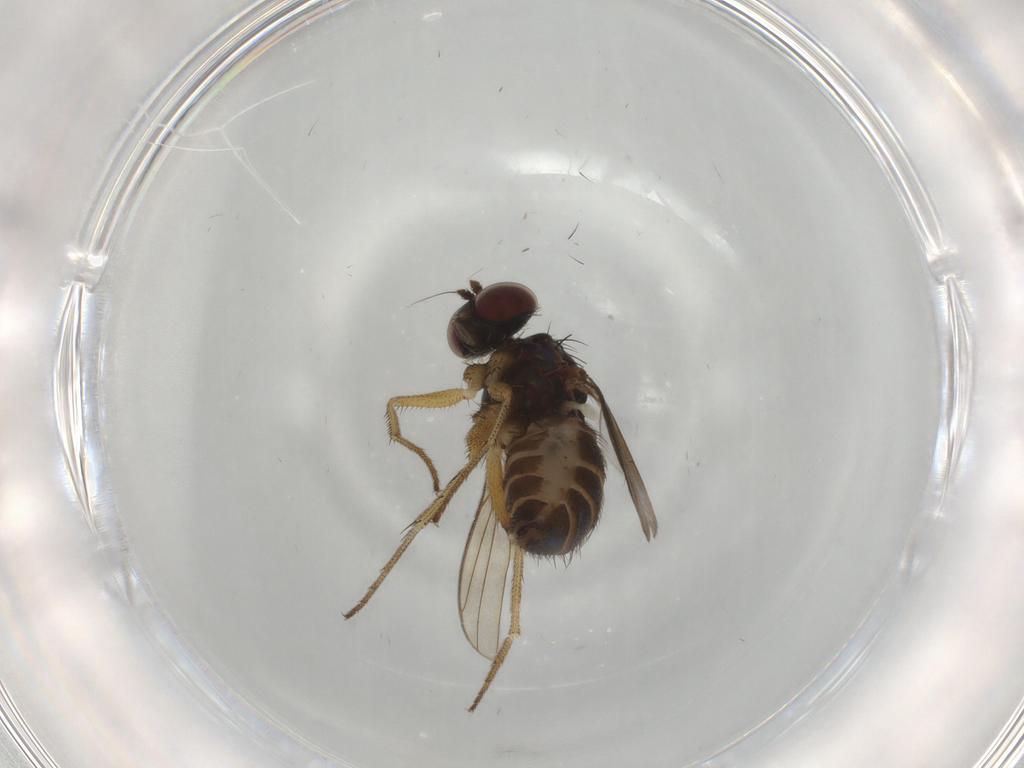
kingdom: Animalia
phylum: Arthropoda
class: Insecta
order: Diptera
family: Dolichopodidae
